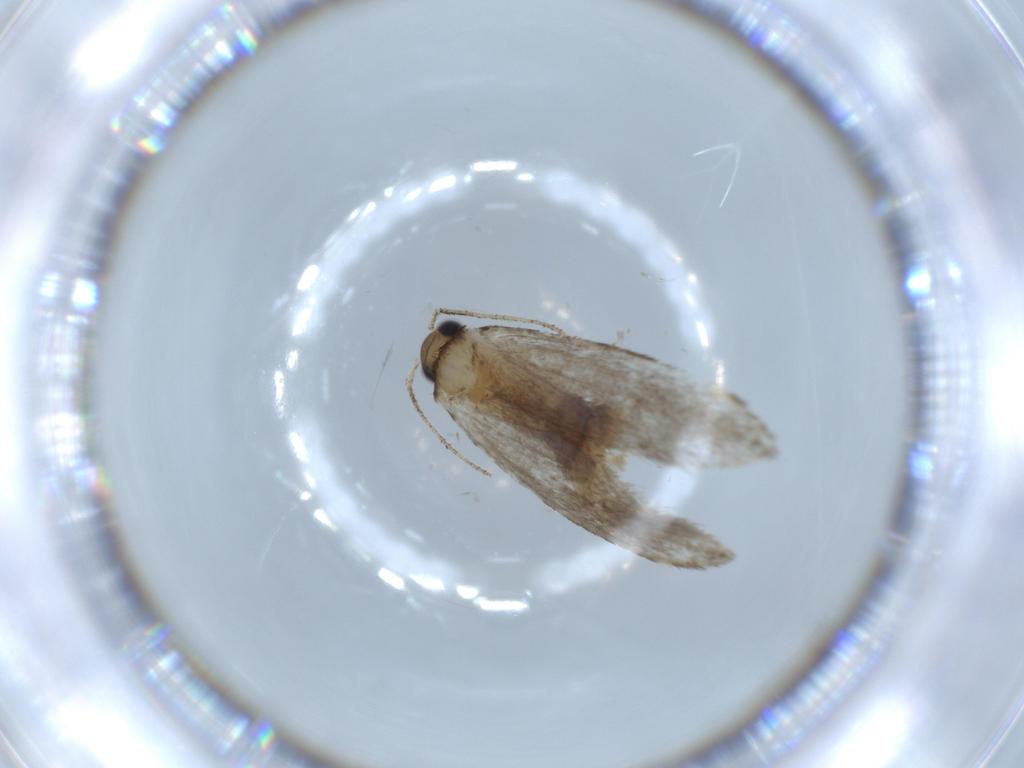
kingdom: Animalia
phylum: Arthropoda
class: Insecta
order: Lepidoptera
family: Tineidae
